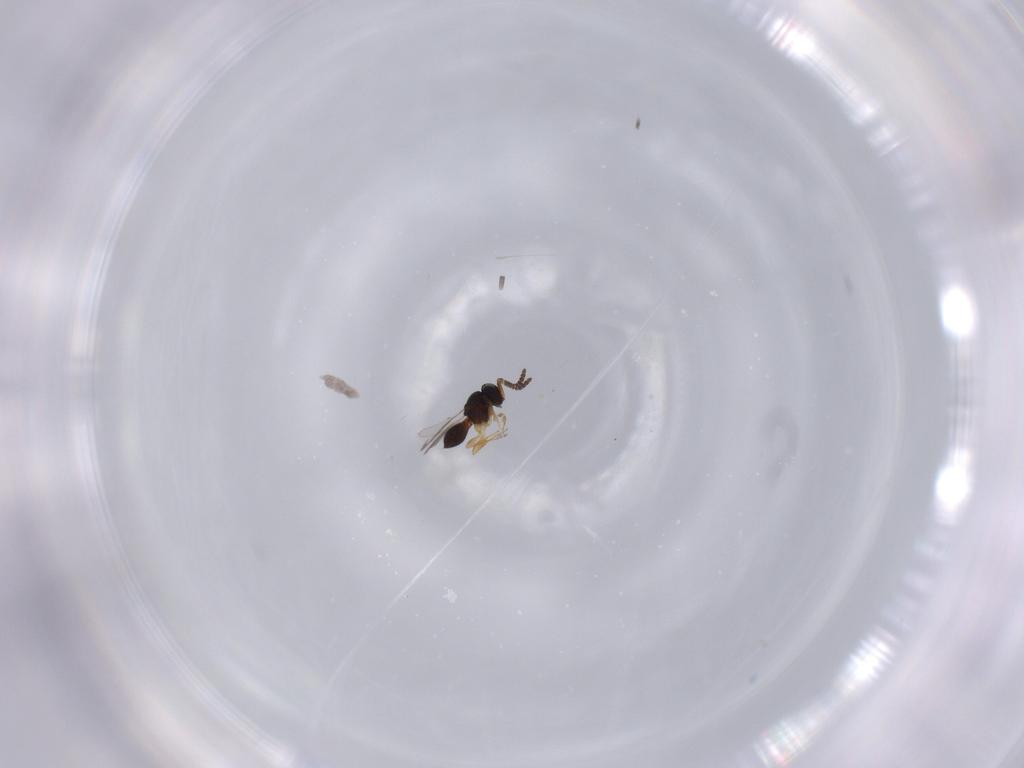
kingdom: Animalia
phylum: Arthropoda
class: Insecta
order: Hymenoptera
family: Scelionidae
